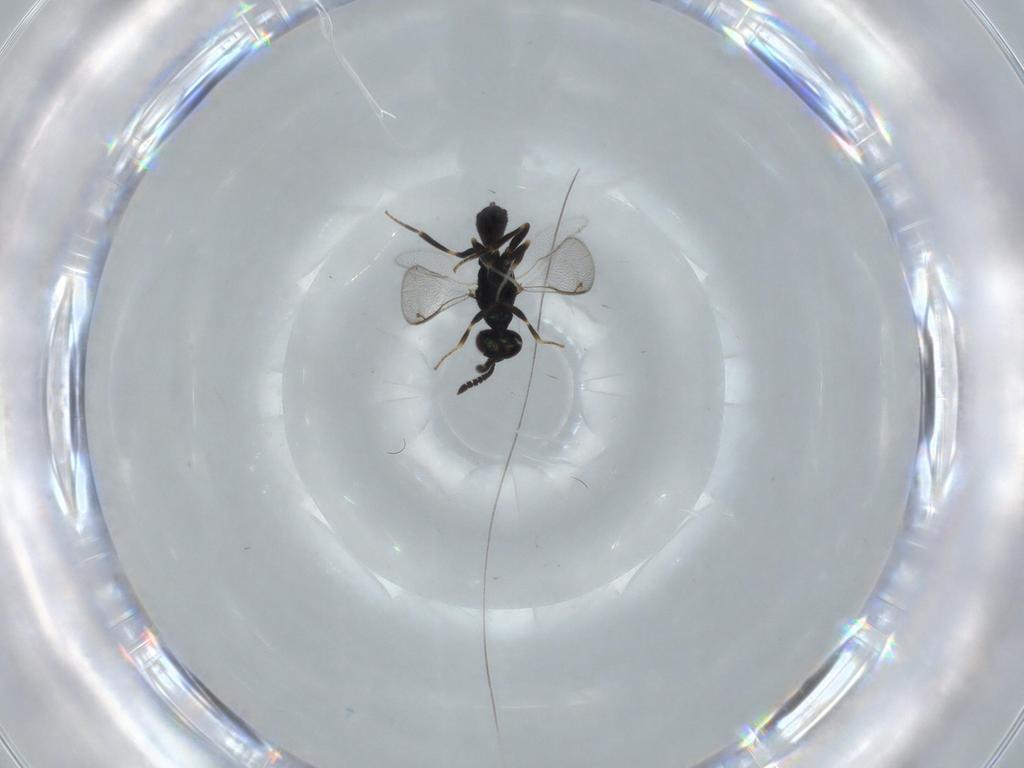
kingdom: Animalia
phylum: Arthropoda
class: Insecta
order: Hymenoptera
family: Cleonyminae
